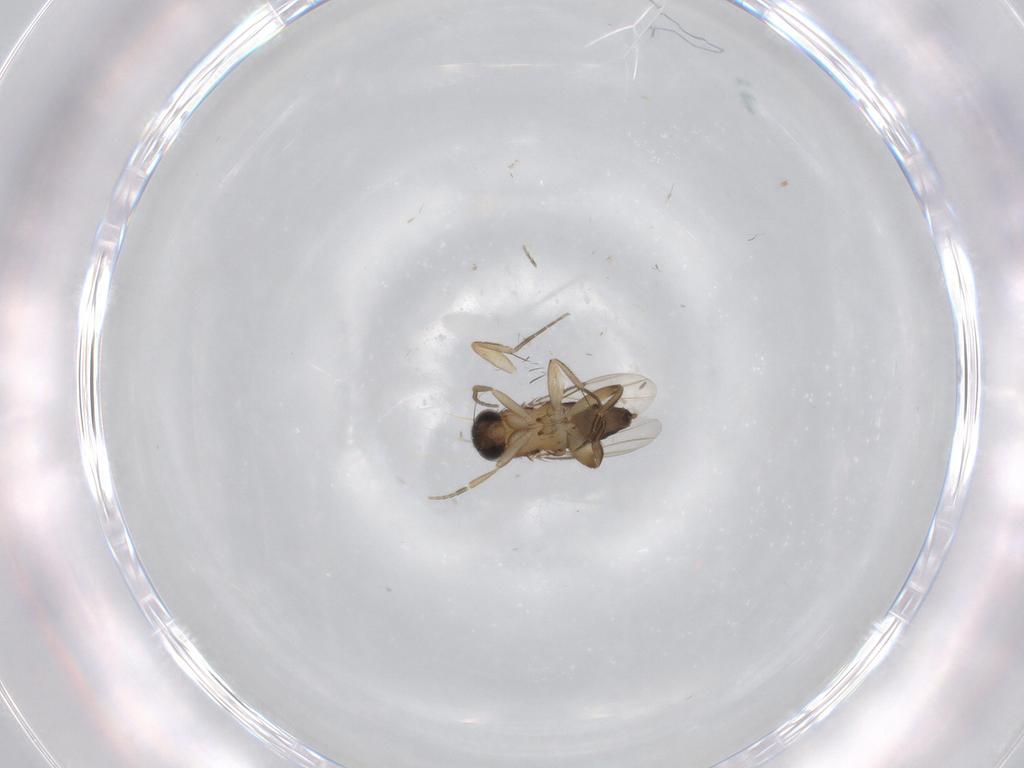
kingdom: Animalia
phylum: Arthropoda
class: Insecta
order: Diptera
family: Phoridae
